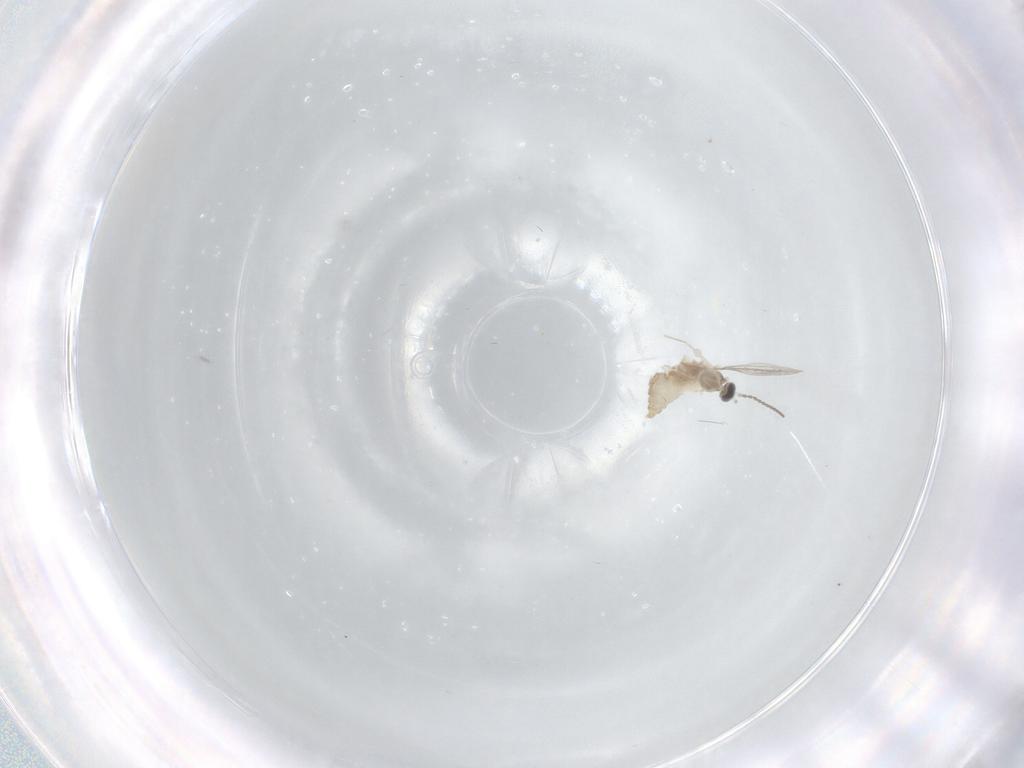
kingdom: Animalia
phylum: Arthropoda
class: Insecta
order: Diptera
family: Cecidomyiidae
